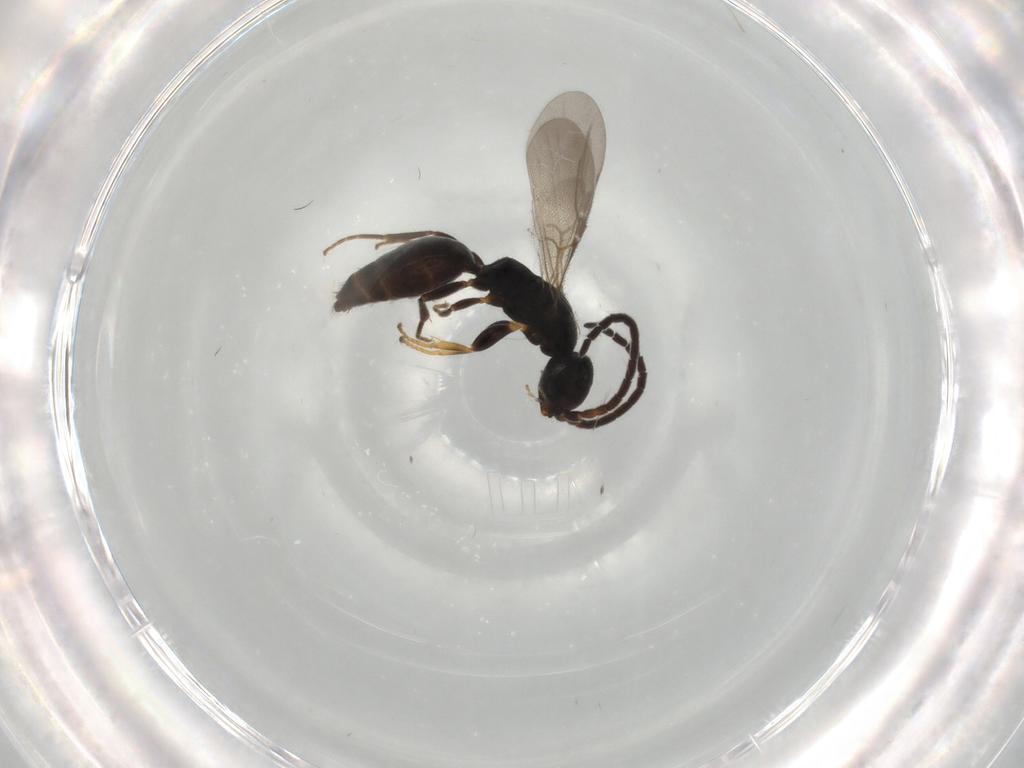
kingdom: Animalia
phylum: Arthropoda
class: Insecta
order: Hymenoptera
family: Bethylidae
